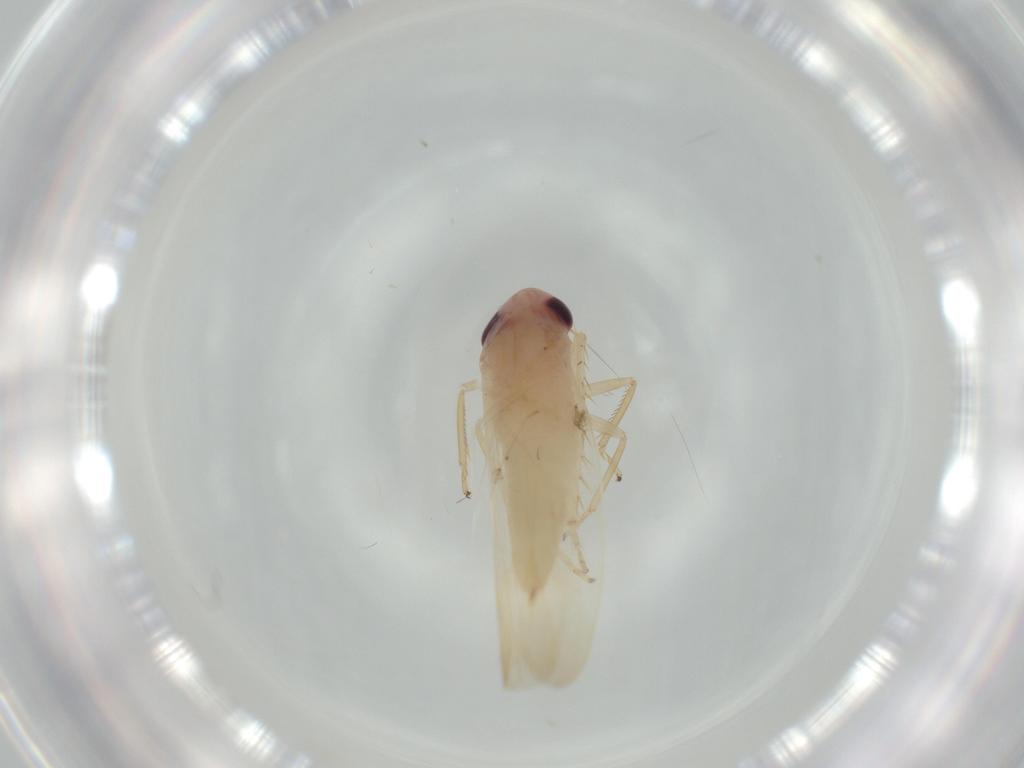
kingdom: Animalia
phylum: Arthropoda
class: Insecta
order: Hemiptera
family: Cicadellidae
